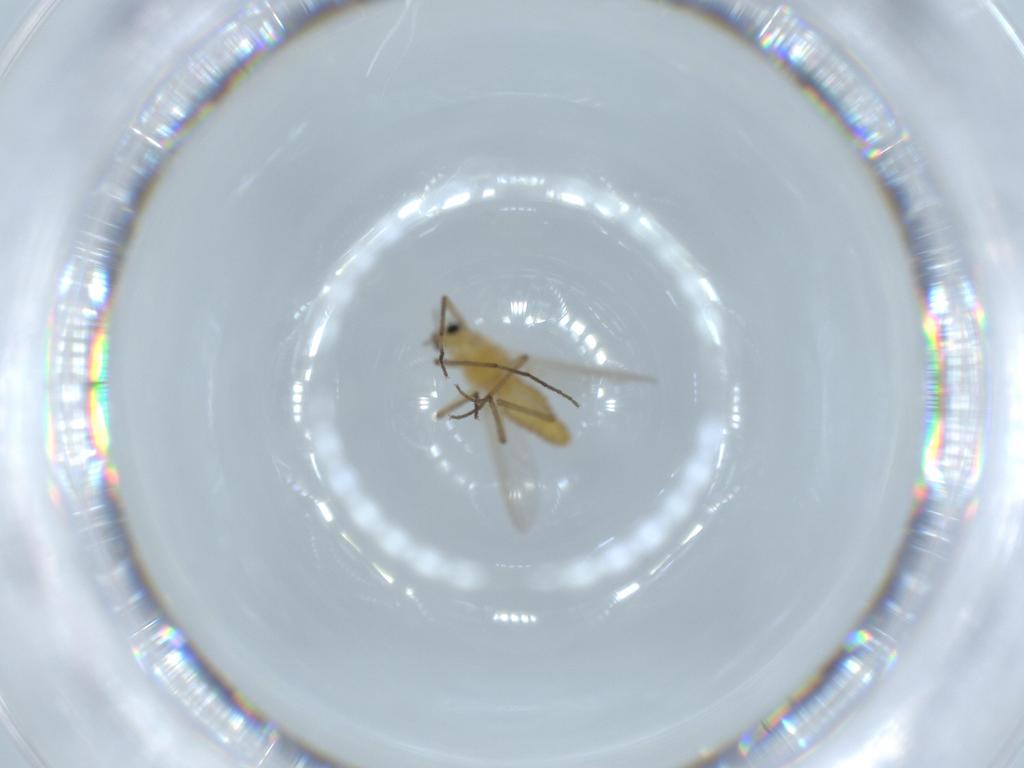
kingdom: Animalia
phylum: Arthropoda
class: Insecta
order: Diptera
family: Chironomidae
